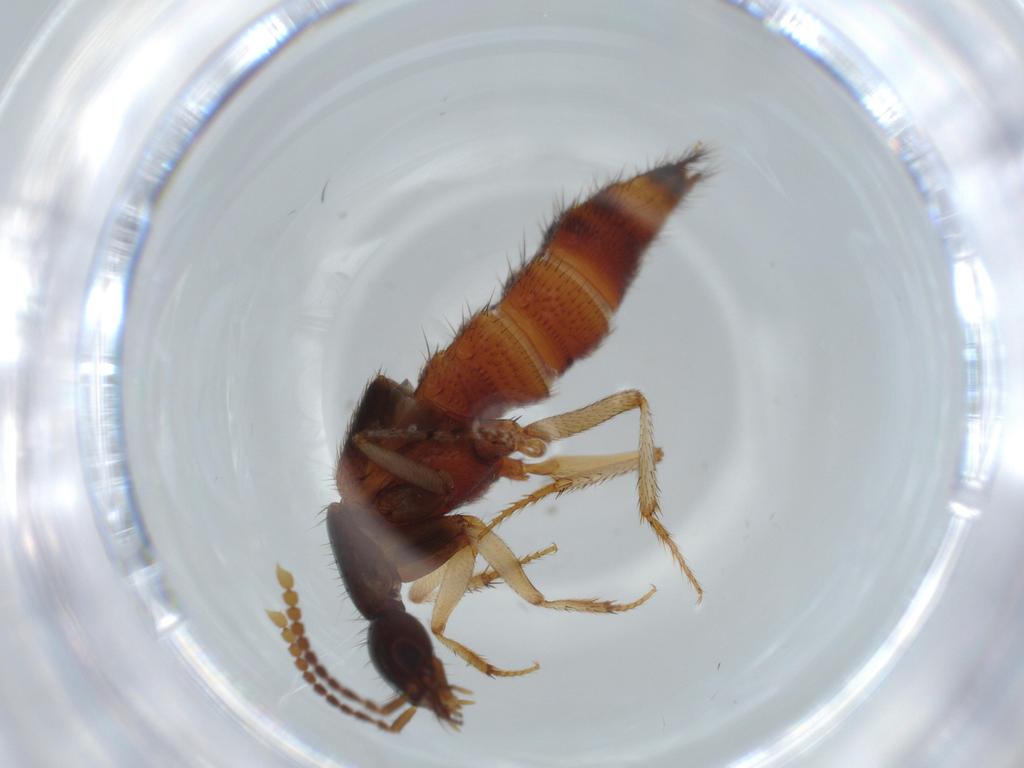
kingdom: Animalia
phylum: Arthropoda
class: Insecta
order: Coleoptera
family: Staphylinidae
